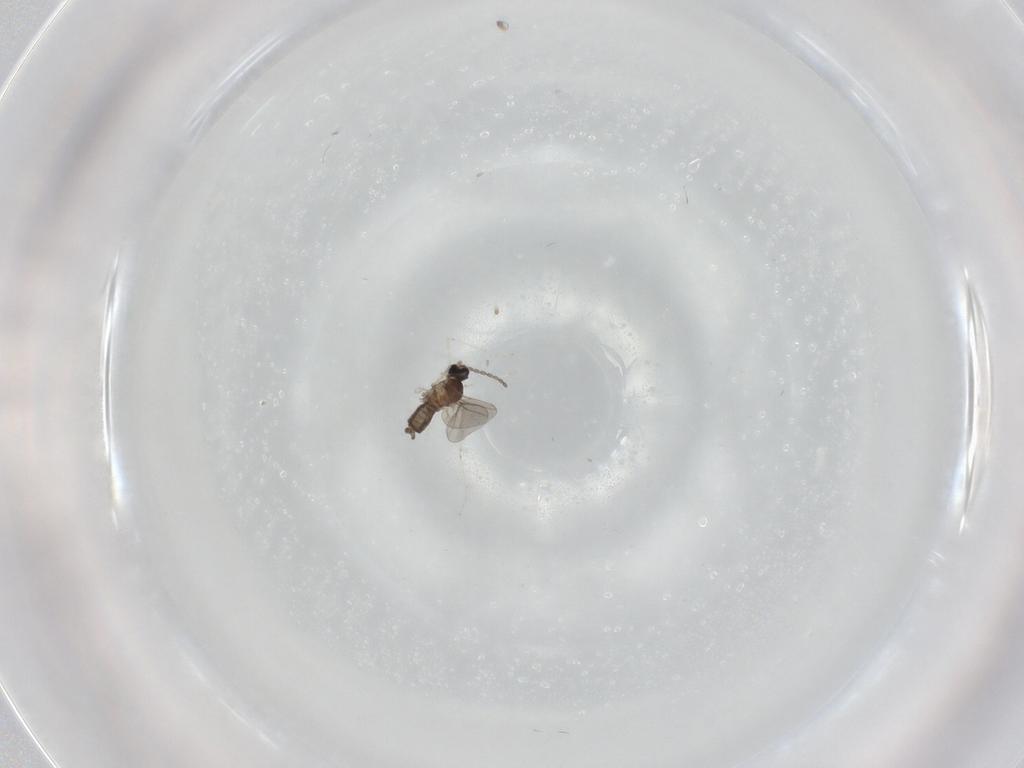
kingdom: Animalia
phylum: Arthropoda
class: Insecta
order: Diptera
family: Cecidomyiidae
